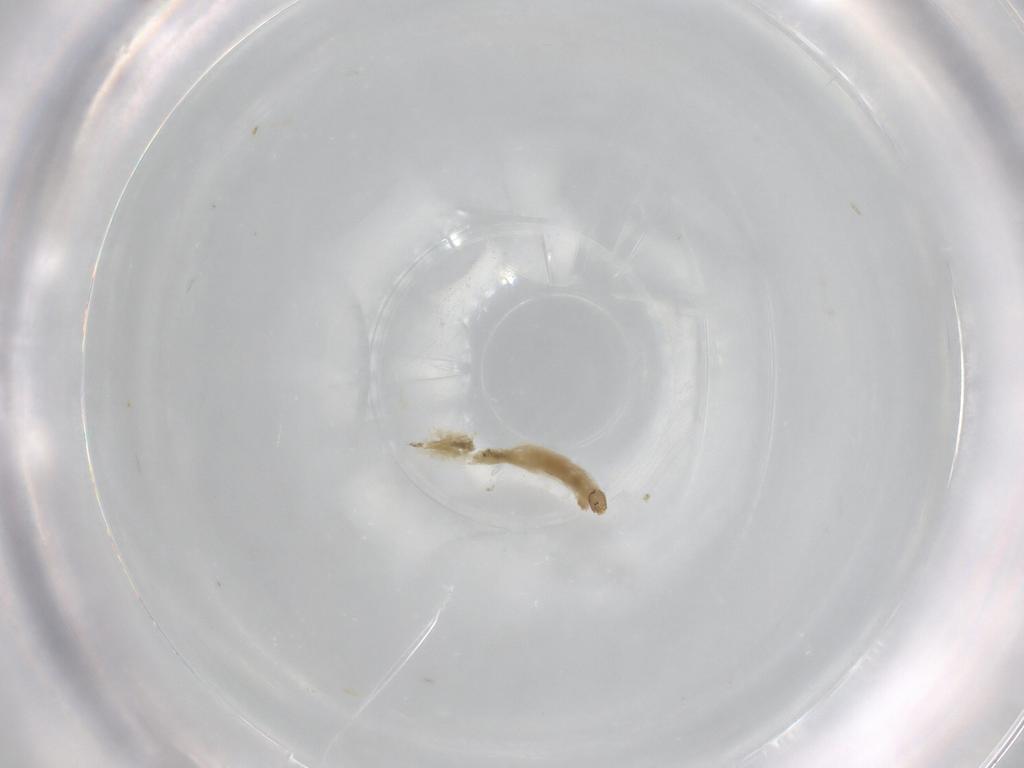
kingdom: Animalia
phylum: Arthropoda
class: Insecta
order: Diptera
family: Chironomidae
